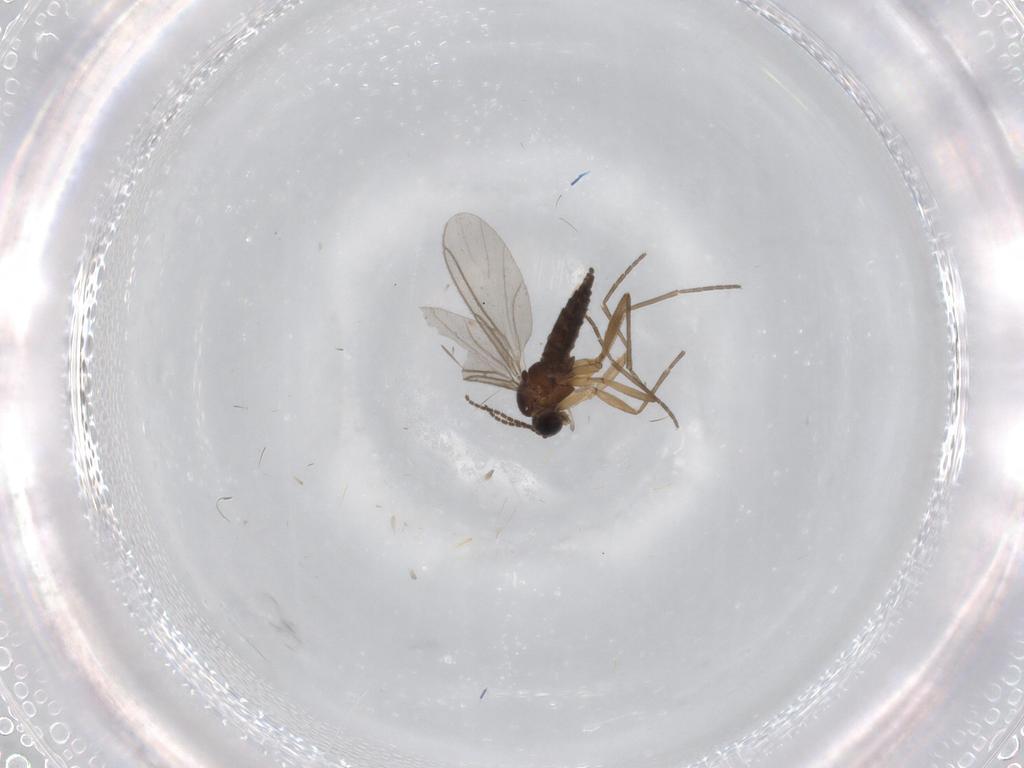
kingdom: Animalia
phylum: Arthropoda
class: Insecta
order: Diptera
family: Sciaridae
